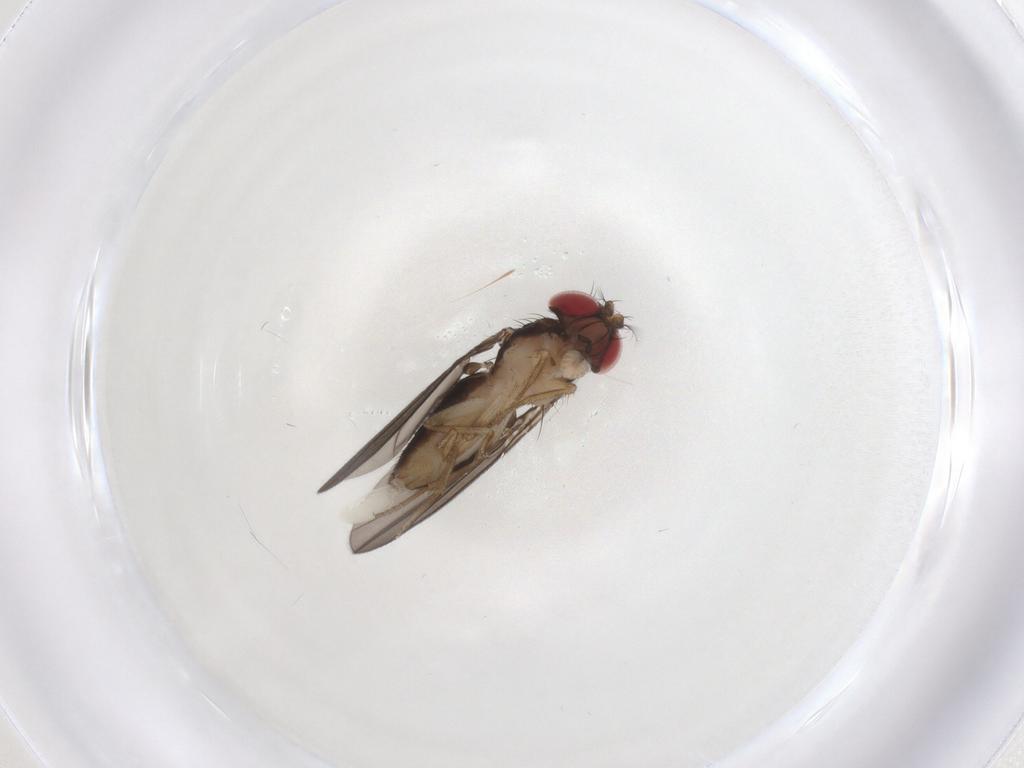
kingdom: Animalia
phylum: Arthropoda
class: Insecta
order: Diptera
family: Drosophilidae
